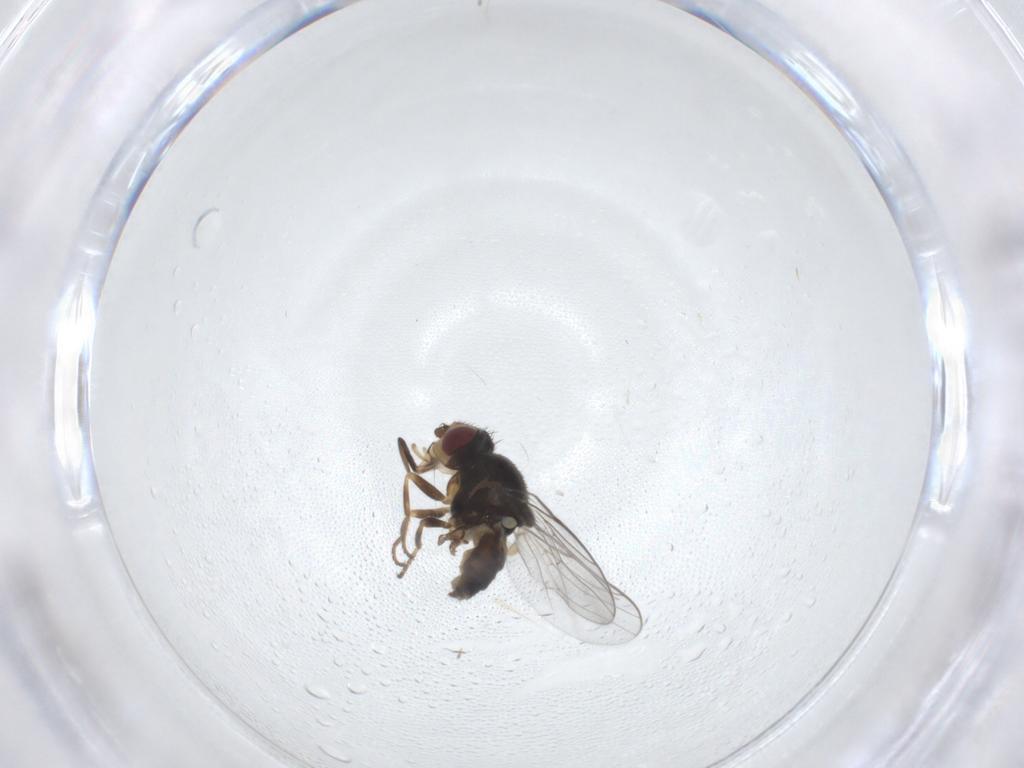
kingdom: Animalia
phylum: Arthropoda
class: Insecta
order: Diptera
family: Chloropidae
